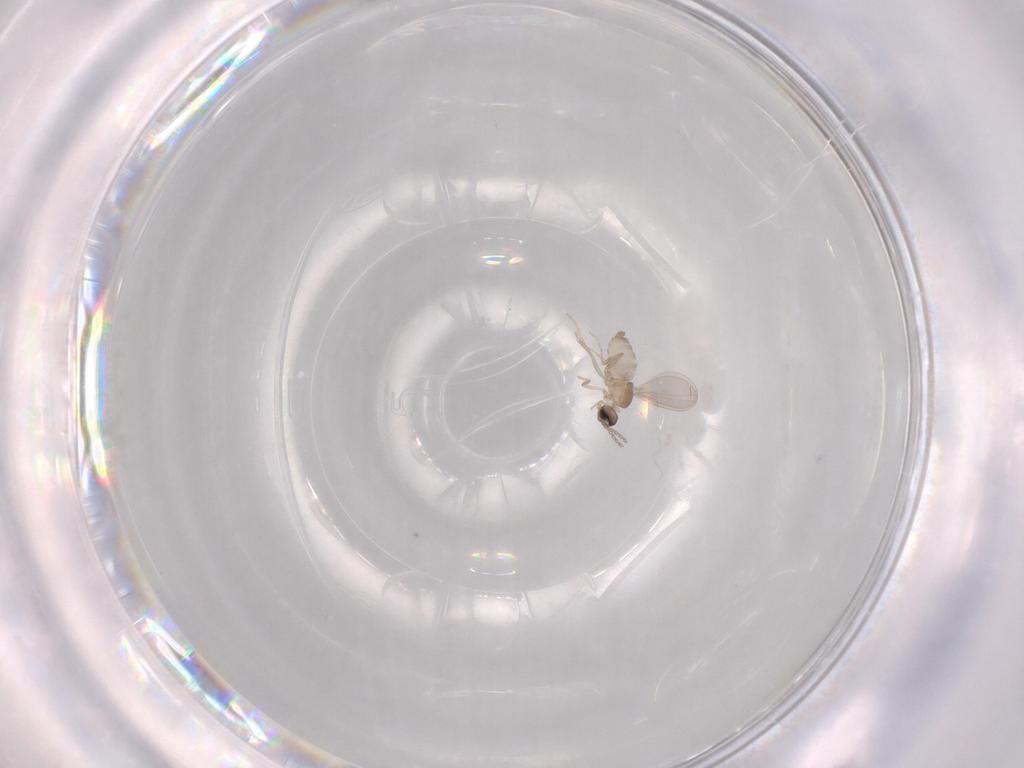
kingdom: Animalia
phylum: Arthropoda
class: Insecta
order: Diptera
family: Cecidomyiidae
